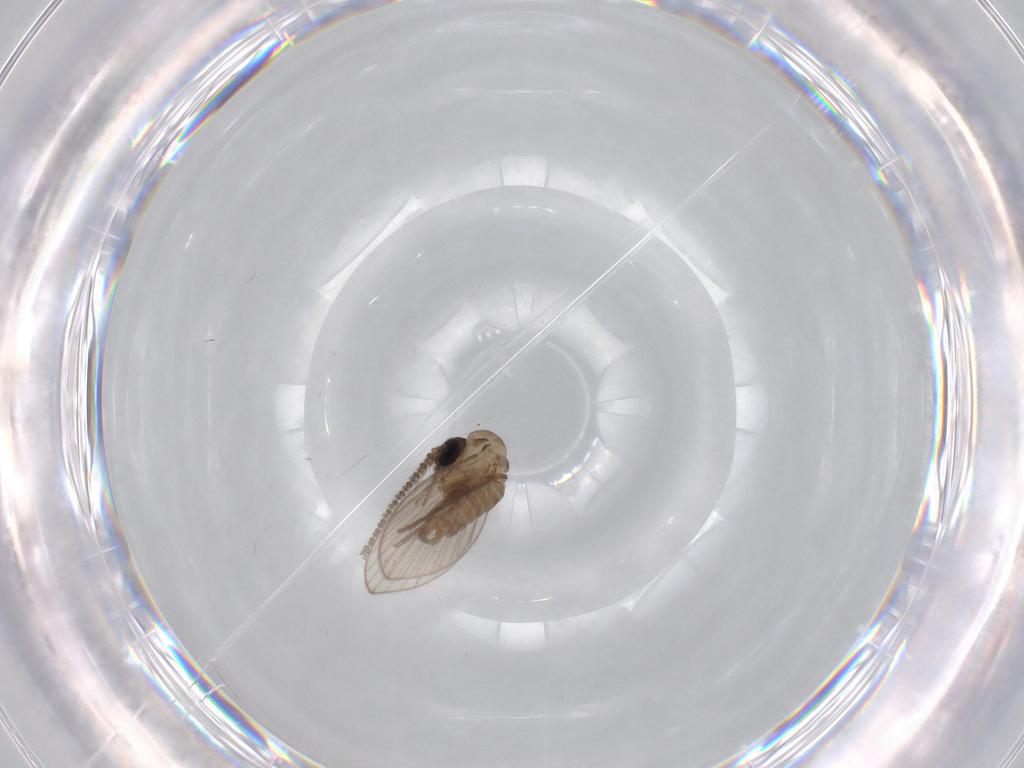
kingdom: Animalia
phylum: Arthropoda
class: Insecta
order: Diptera
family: Psychodidae
